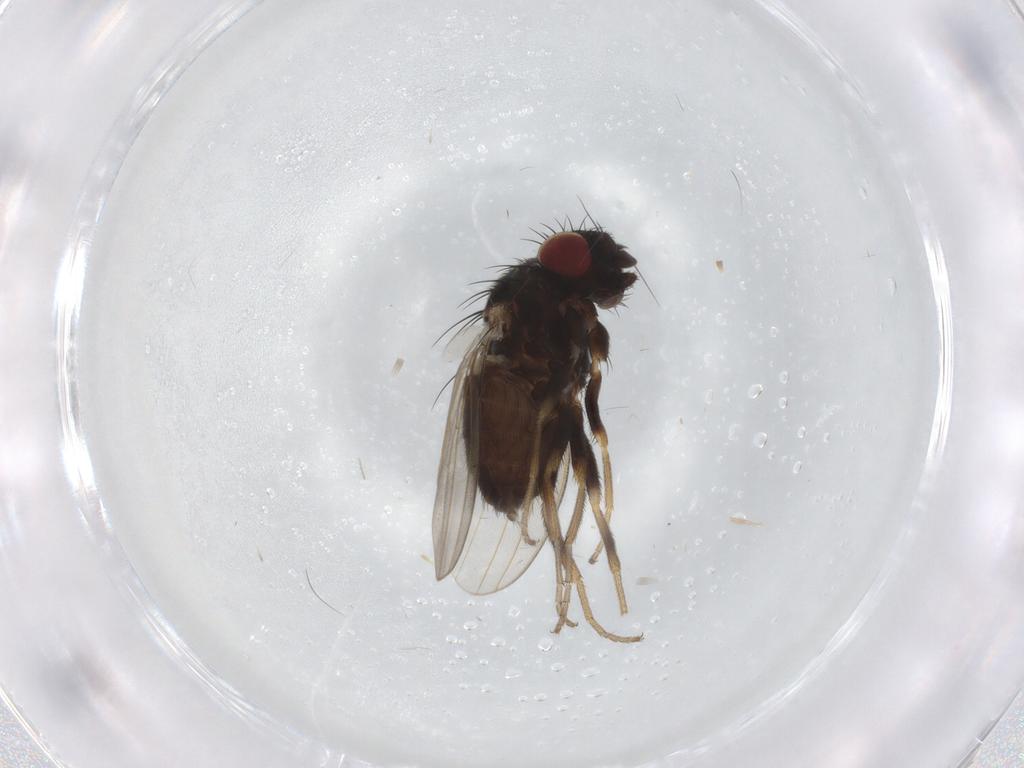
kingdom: Animalia
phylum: Arthropoda
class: Insecta
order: Diptera
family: Milichiidae
